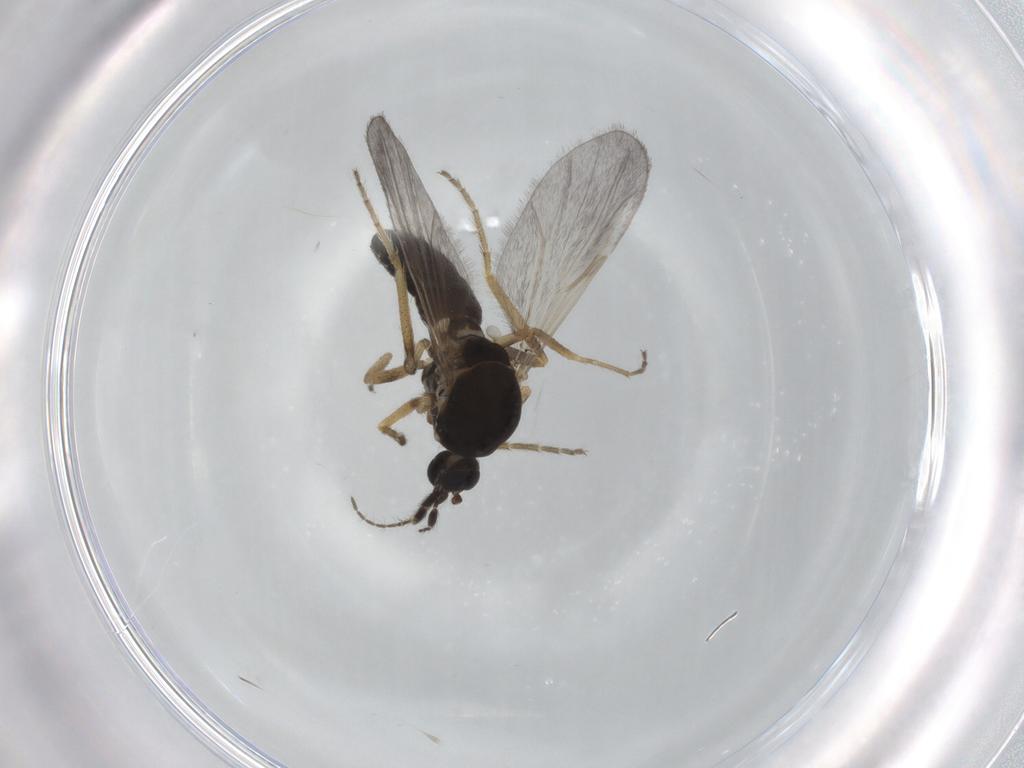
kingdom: Animalia
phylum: Arthropoda
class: Insecta
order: Diptera
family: Ceratopogonidae
